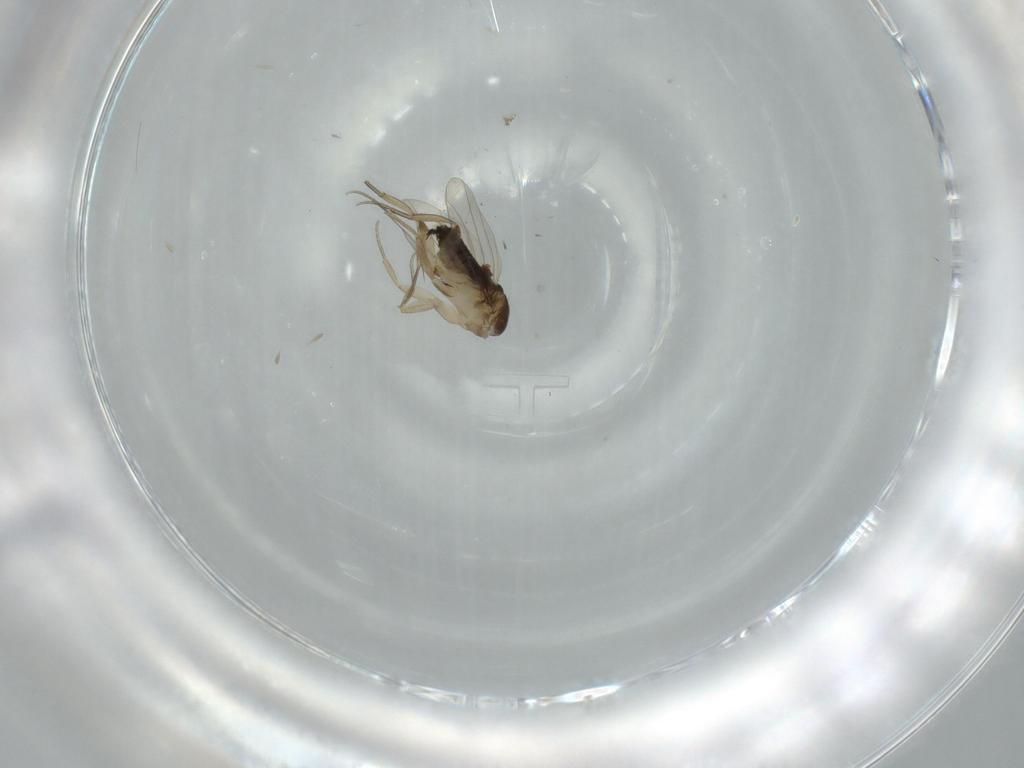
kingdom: Animalia
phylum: Arthropoda
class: Insecta
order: Diptera
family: Phoridae
